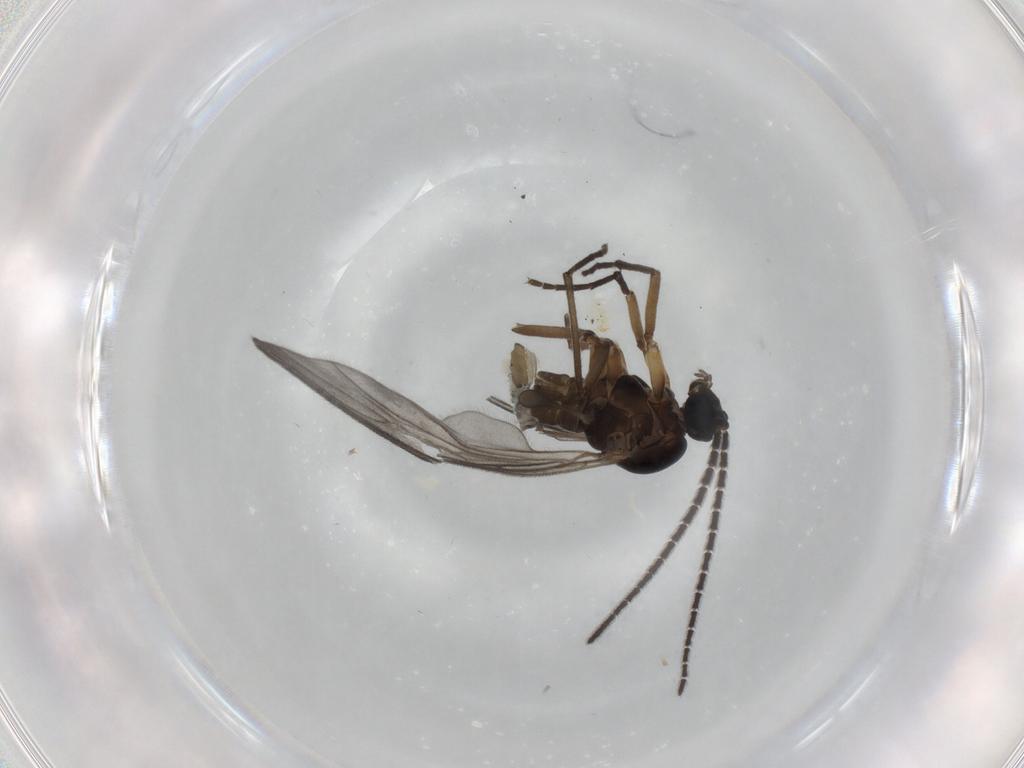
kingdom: Animalia
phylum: Arthropoda
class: Insecta
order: Diptera
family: Sciaridae
